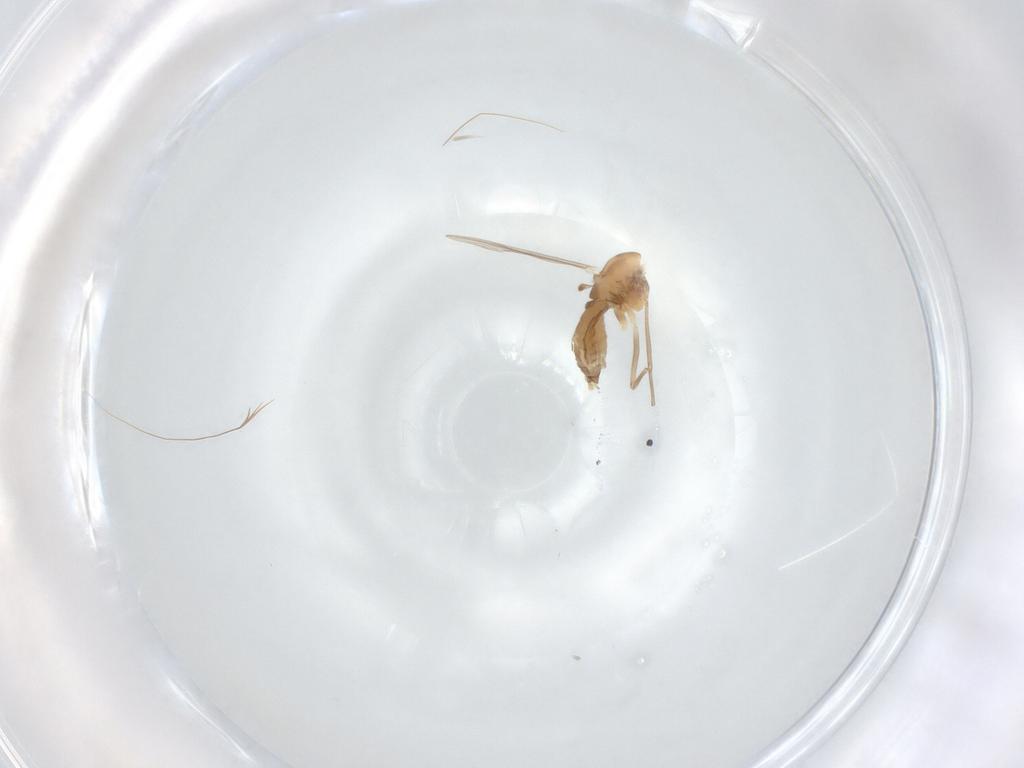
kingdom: Animalia
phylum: Arthropoda
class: Insecta
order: Diptera
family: Chironomidae
